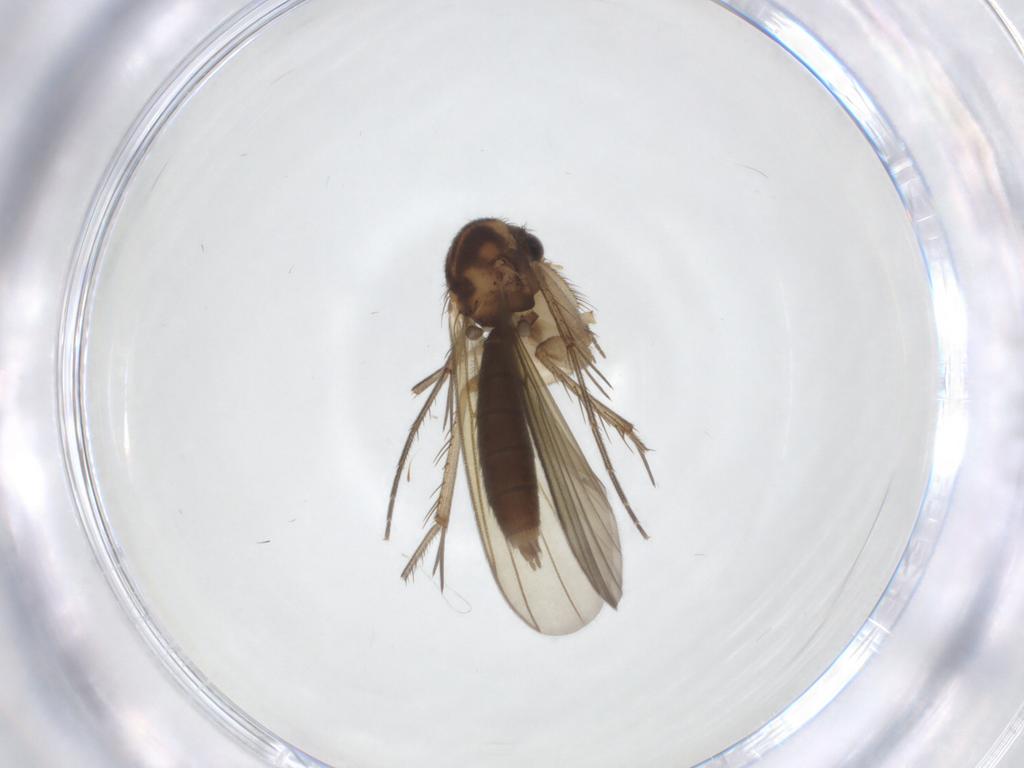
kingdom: Animalia
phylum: Arthropoda
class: Insecta
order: Diptera
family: Mycetophilidae
